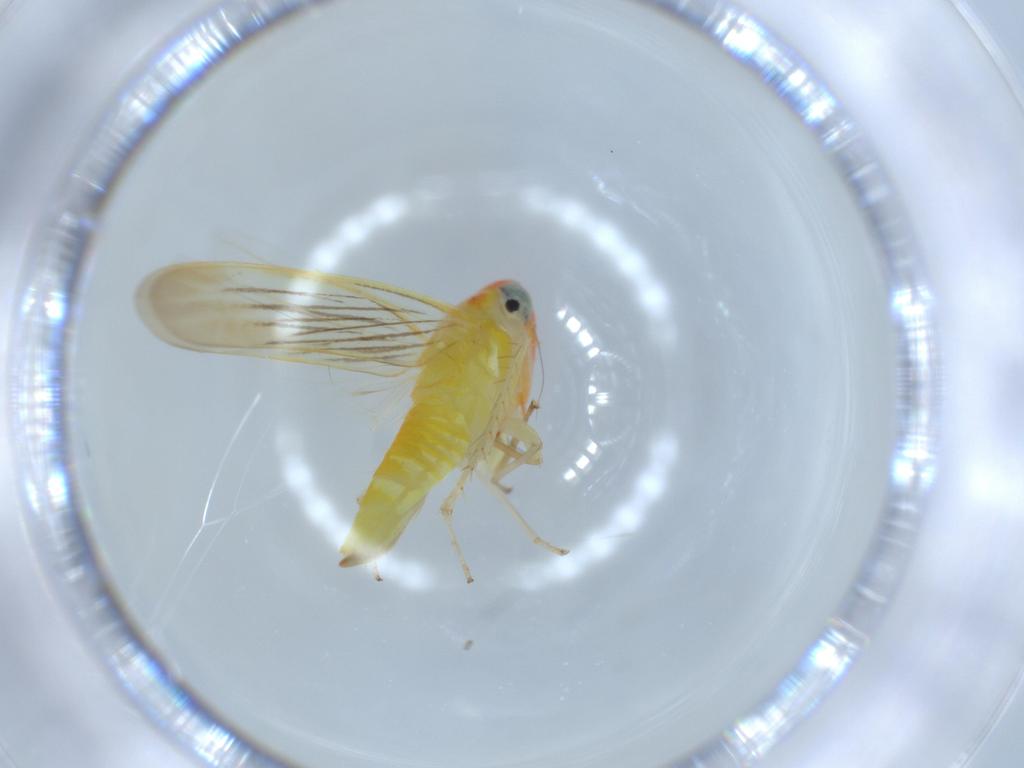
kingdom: Animalia
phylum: Arthropoda
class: Insecta
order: Hemiptera
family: Cicadellidae
